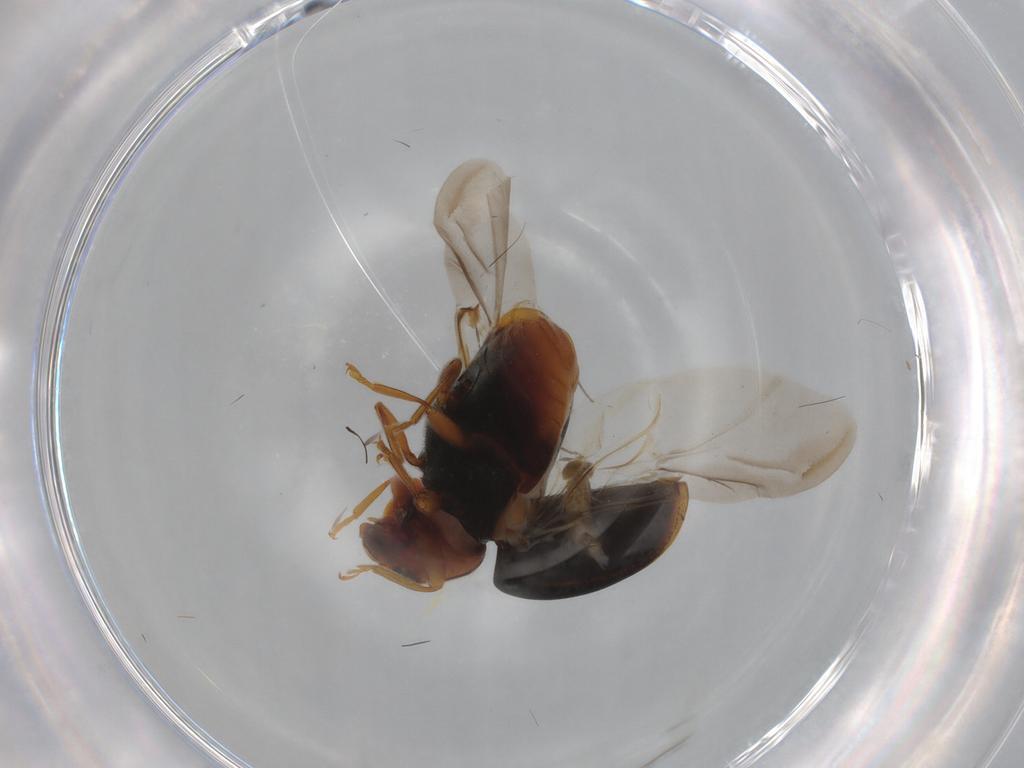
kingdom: Animalia
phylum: Arthropoda
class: Insecta
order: Coleoptera
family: Coccinellidae
